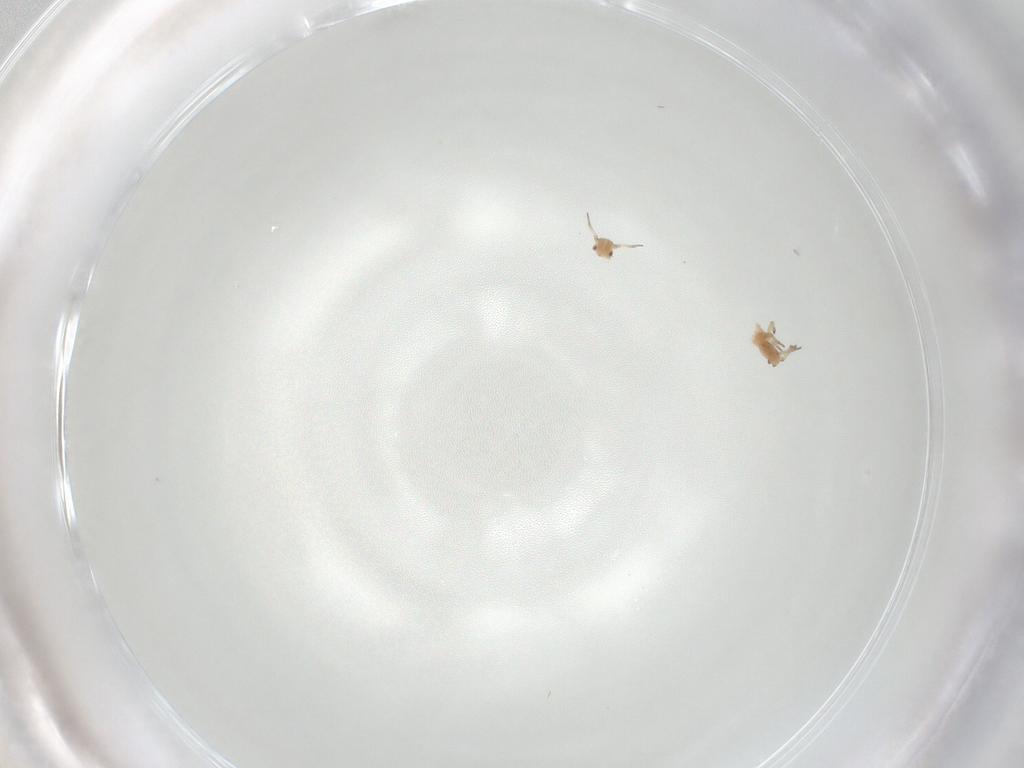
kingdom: Animalia
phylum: Arthropoda
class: Insecta
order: Hemiptera
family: Aphididae
